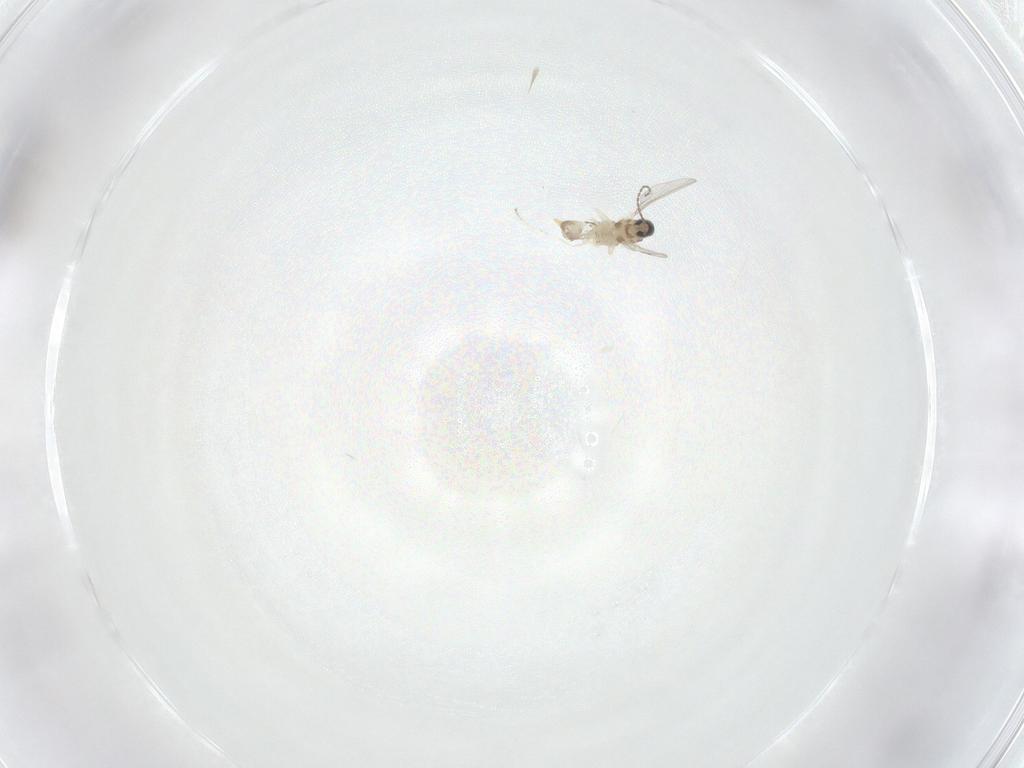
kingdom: Animalia
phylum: Arthropoda
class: Insecta
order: Diptera
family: Cecidomyiidae
